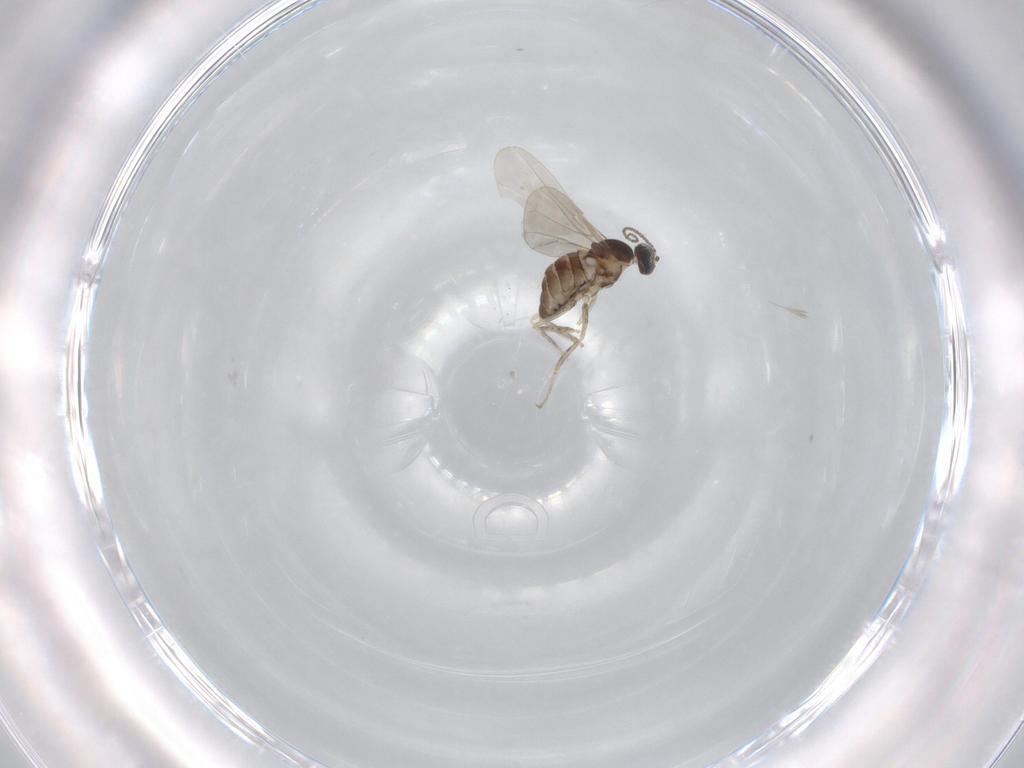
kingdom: Animalia
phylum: Arthropoda
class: Insecta
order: Diptera
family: Cecidomyiidae
